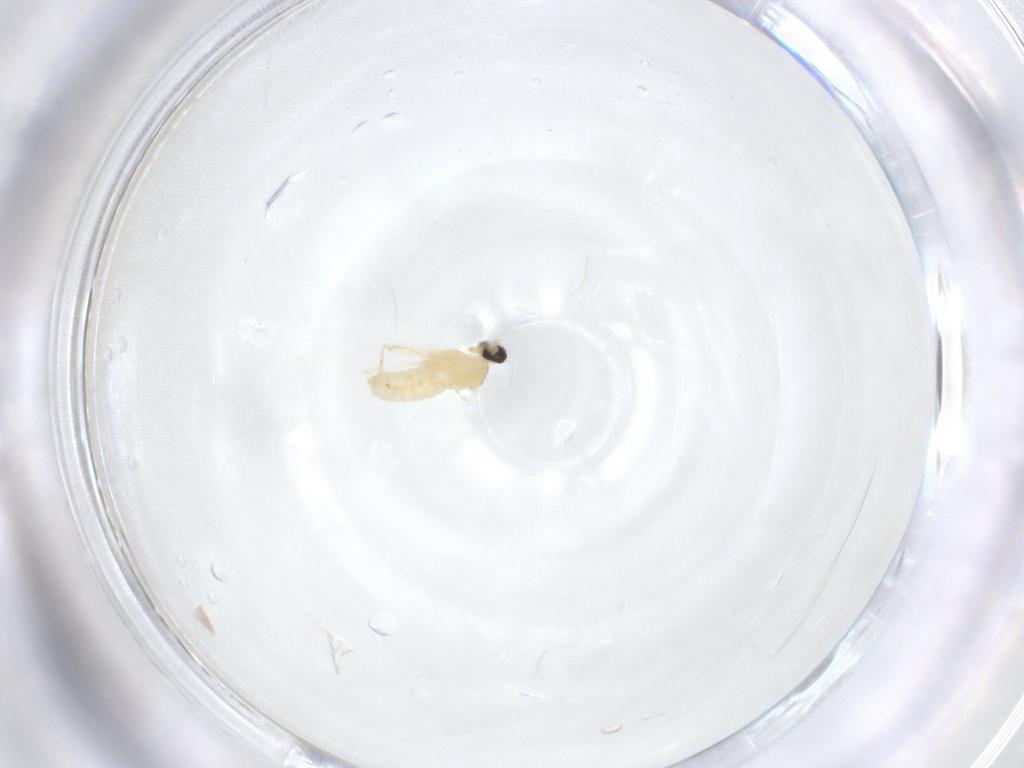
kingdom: Animalia
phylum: Arthropoda
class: Insecta
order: Diptera
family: Cecidomyiidae
